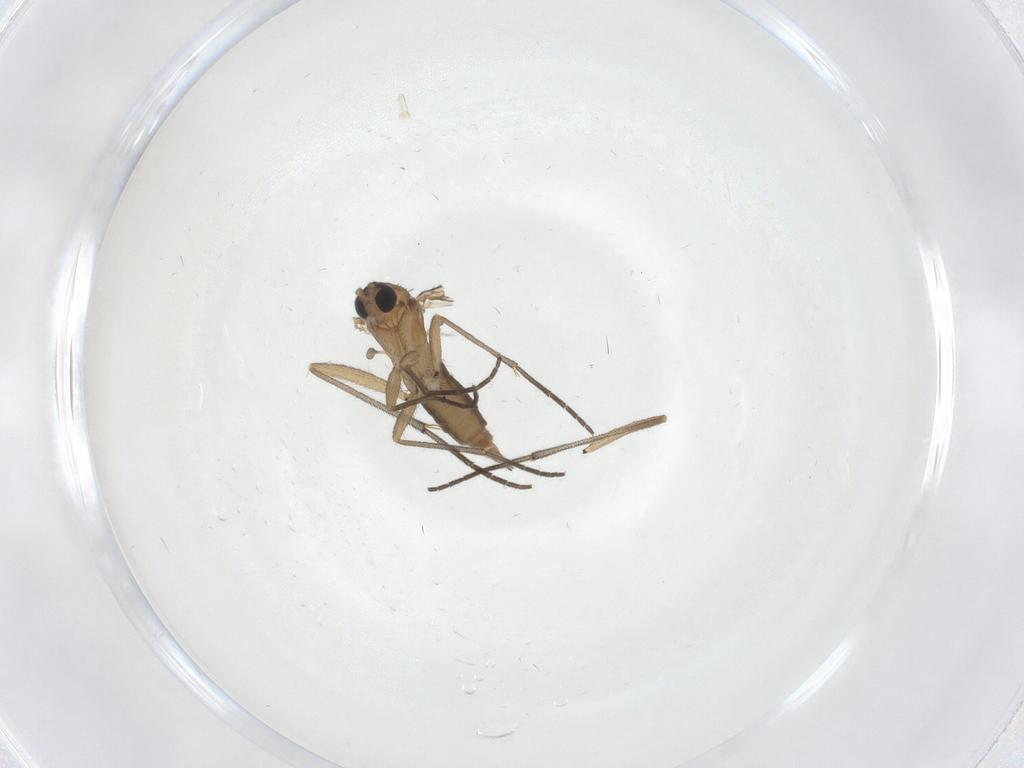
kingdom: Animalia
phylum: Arthropoda
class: Insecta
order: Diptera
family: Sciaridae
